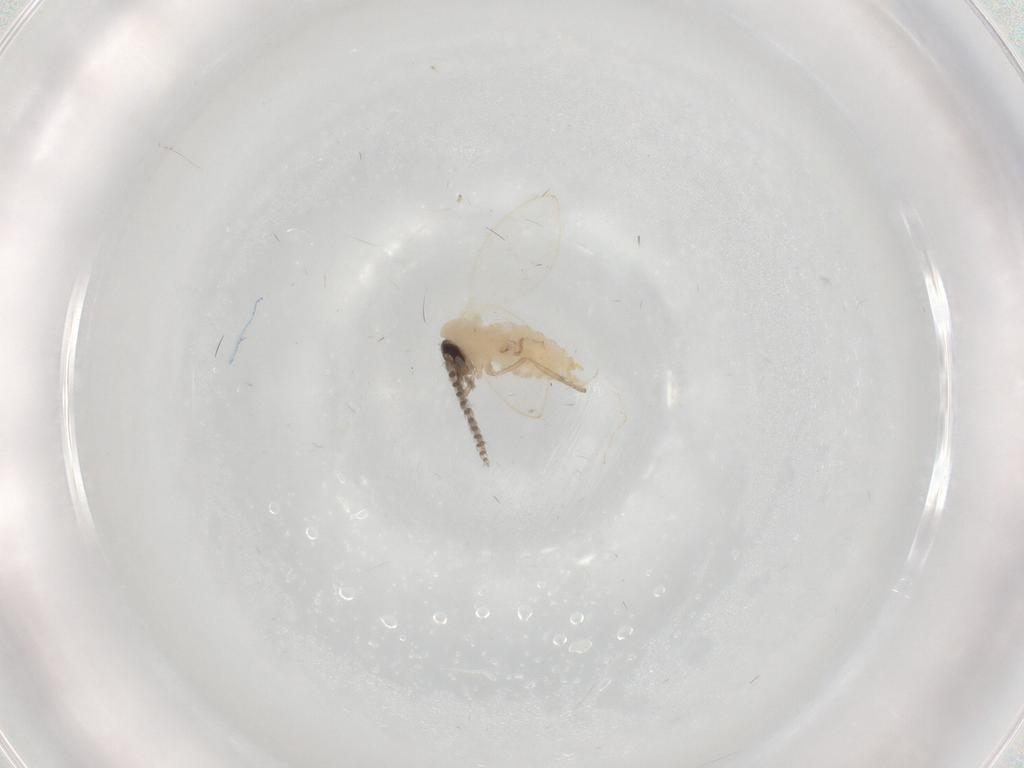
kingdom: Animalia
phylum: Arthropoda
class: Insecta
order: Diptera
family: Psychodidae
